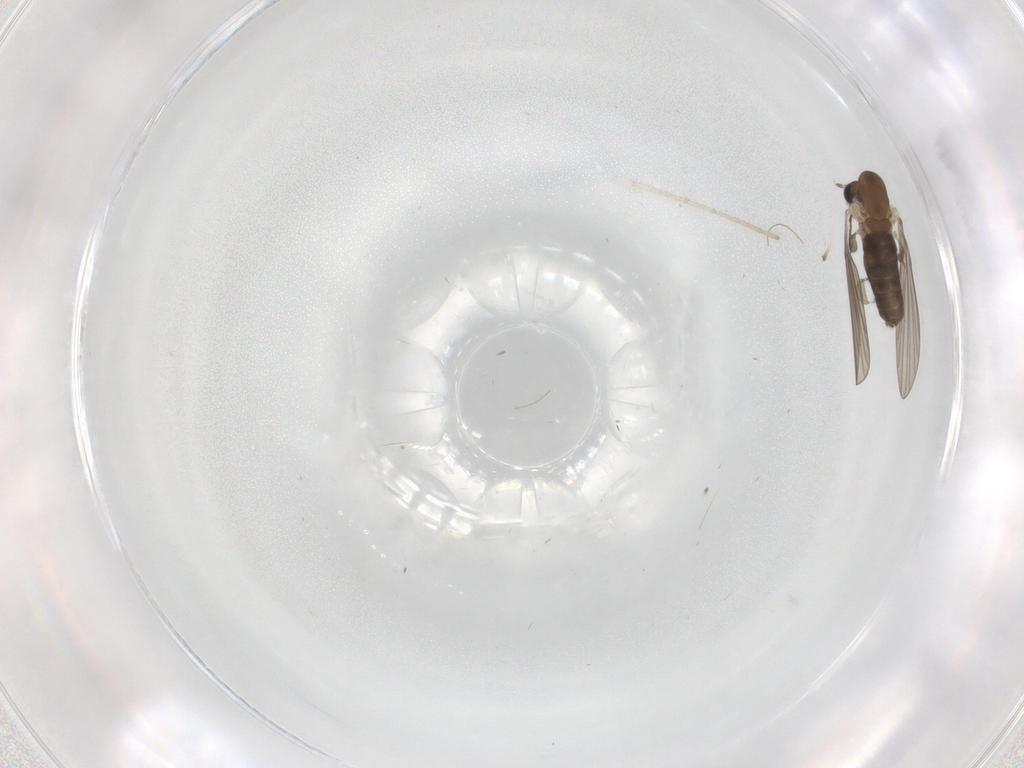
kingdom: Animalia
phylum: Arthropoda
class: Insecta
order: Diptera
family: Psychodidae
